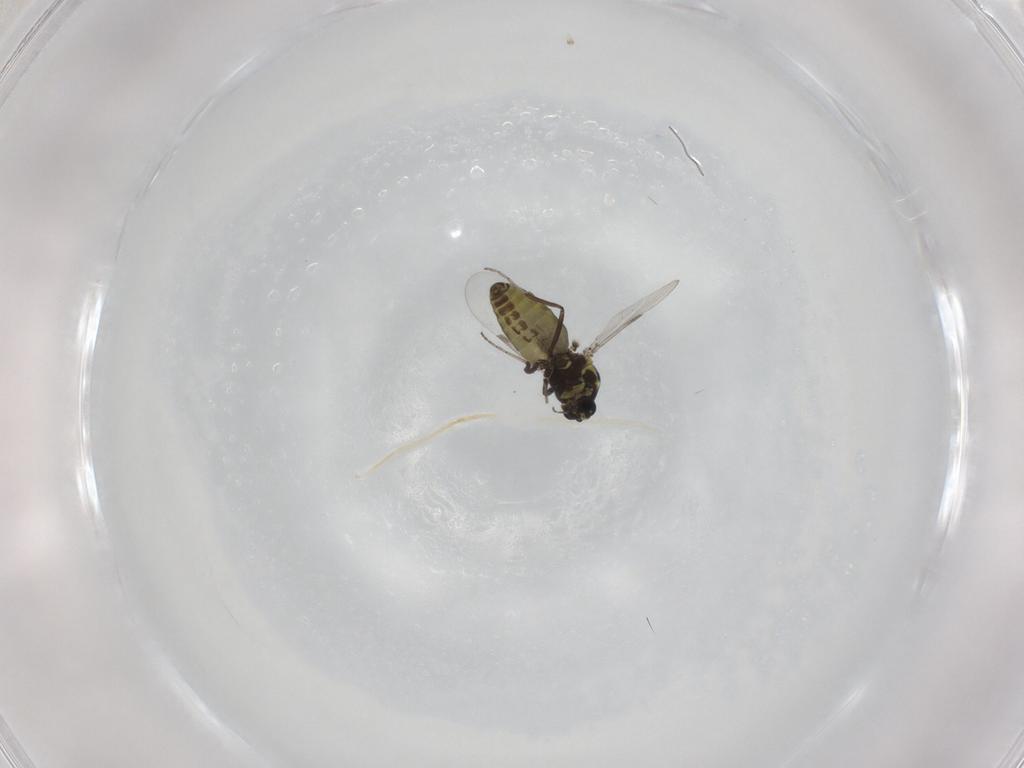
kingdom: Animalia
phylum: Arthropoda
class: Insecta
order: Diptera
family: Ceratopogonidae
